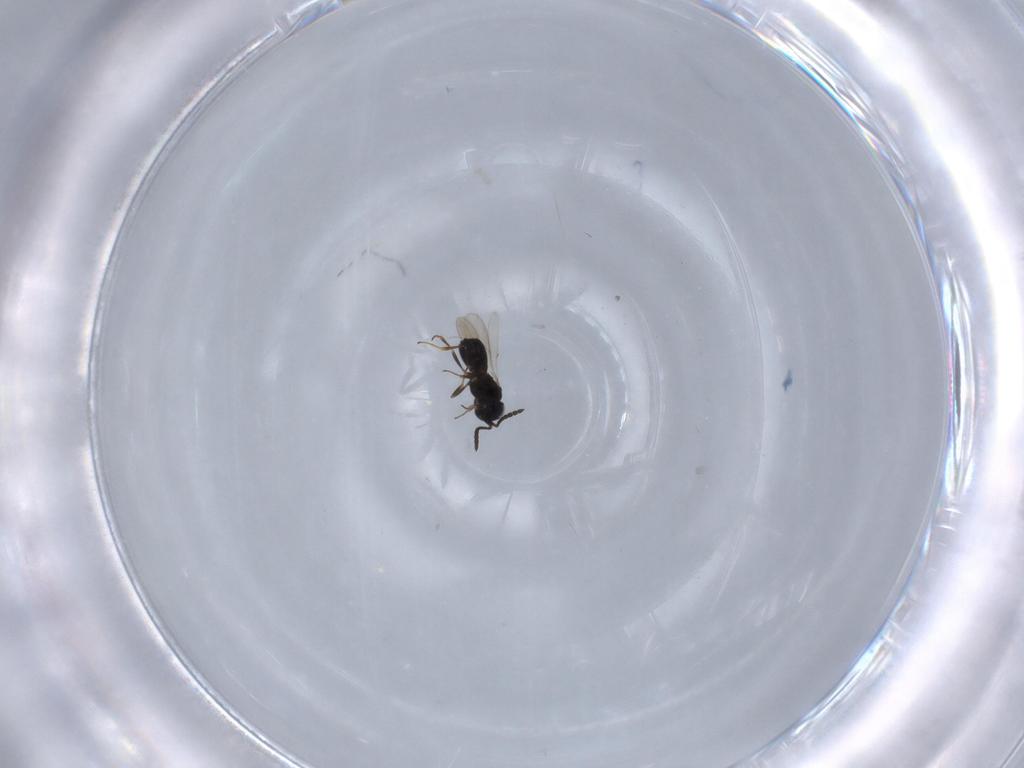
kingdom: Animalia
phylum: Arthropoda
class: Insecta
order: Hymenoptera
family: Scelionidae
